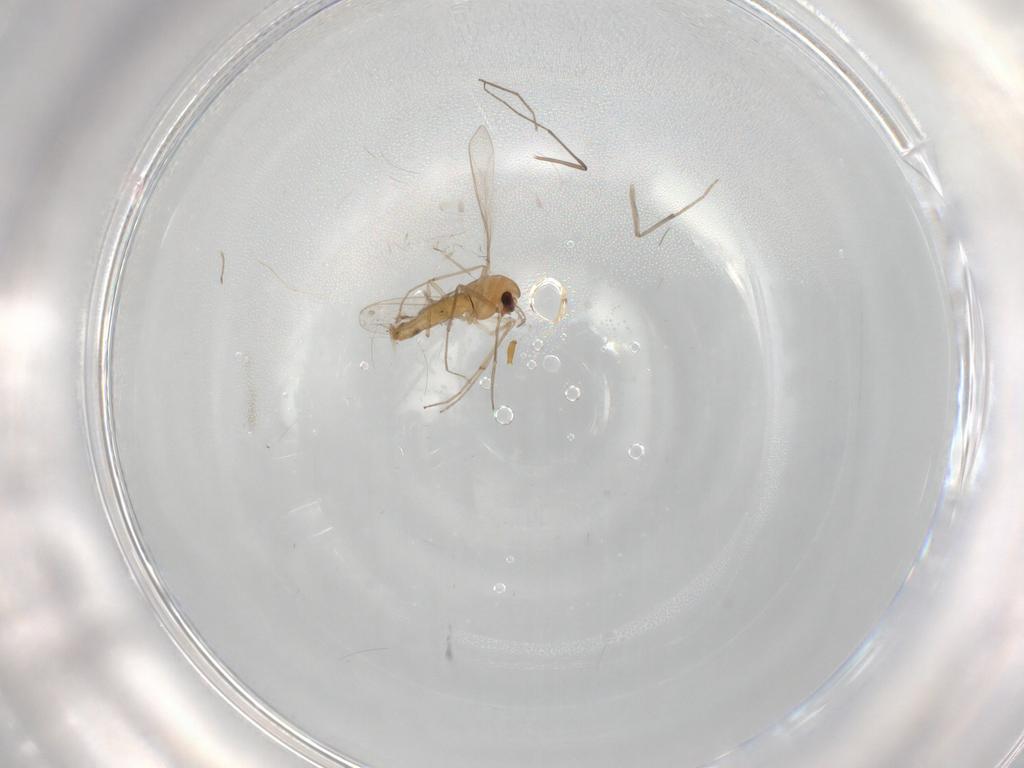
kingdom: Animalia
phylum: Arthropoda
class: Insecta
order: Diptera
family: Chironomidae
